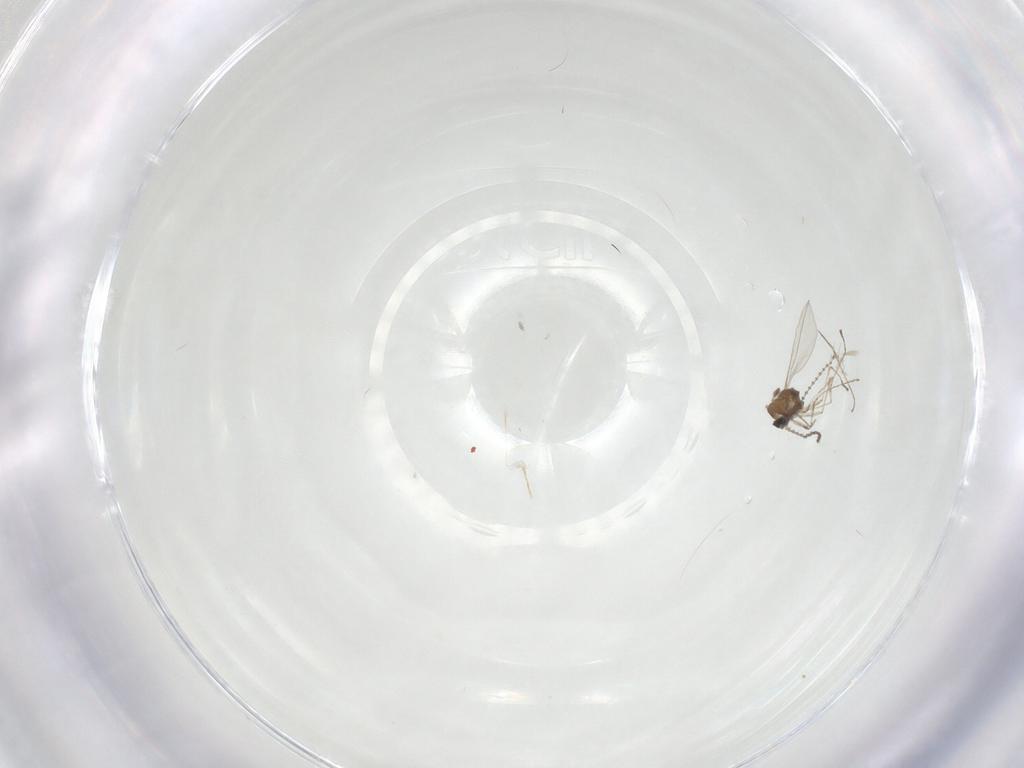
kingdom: Animalia
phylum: Arthropoda
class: Insecta
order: Diptera
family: Cecidomyiidae
